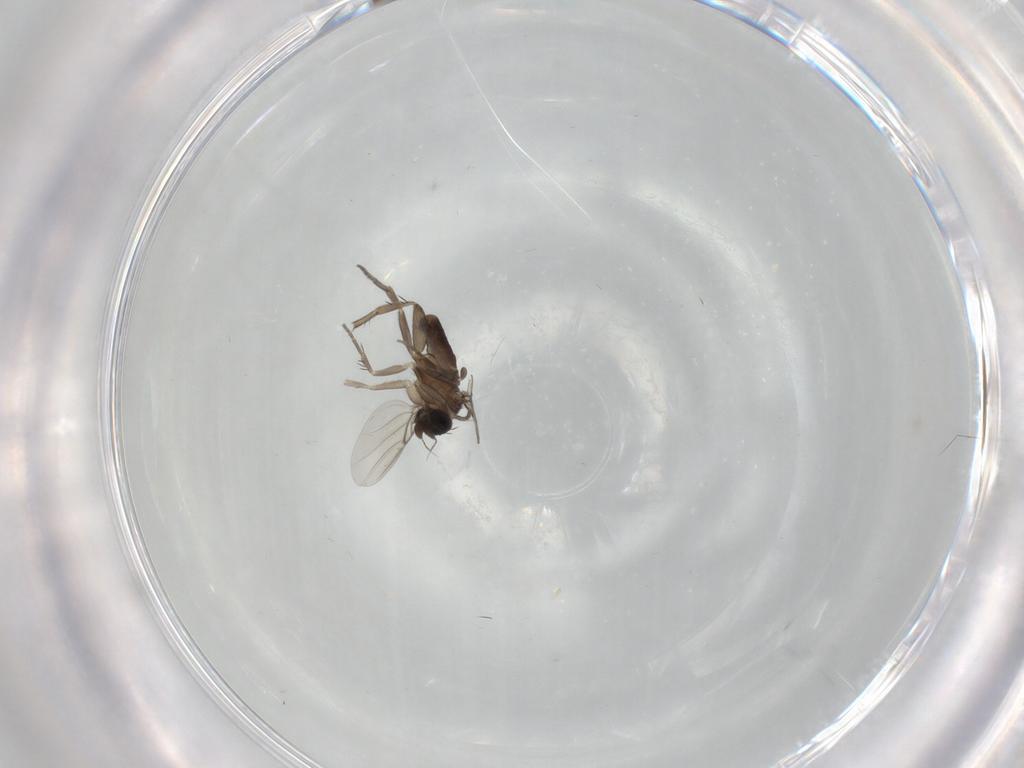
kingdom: Animalia
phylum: Arthropoda
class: Insecta
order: Diptera
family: Phoridae
